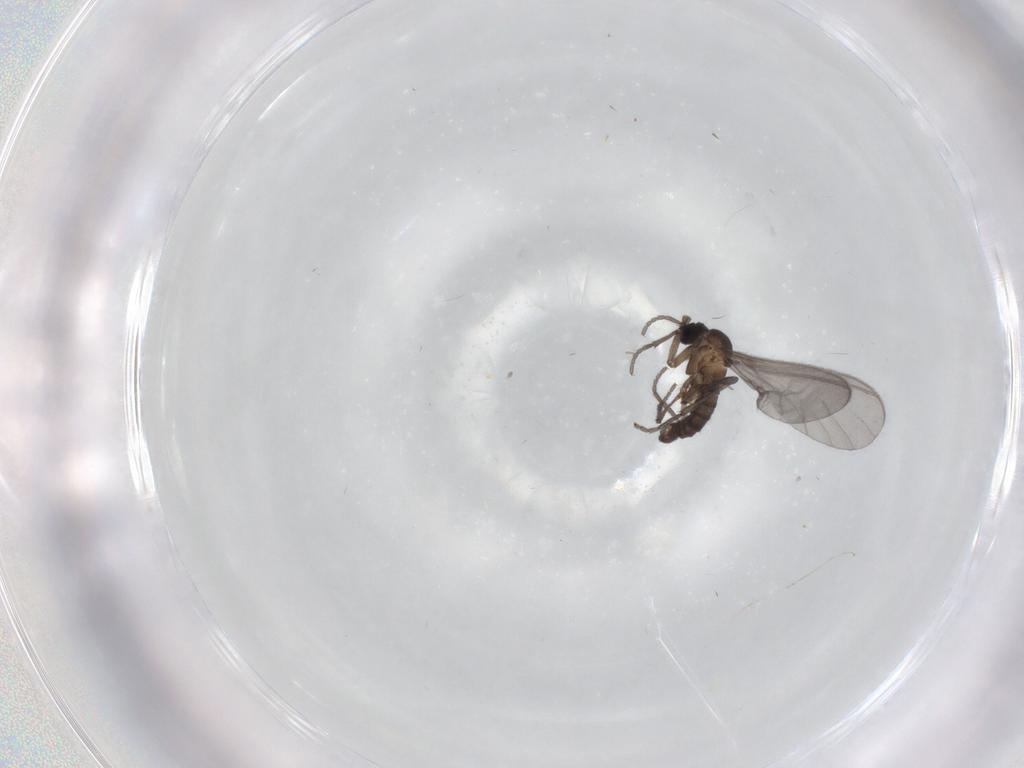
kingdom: Animalia
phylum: Arthropoda
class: Insecta
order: Diptera
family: Sciaridae
